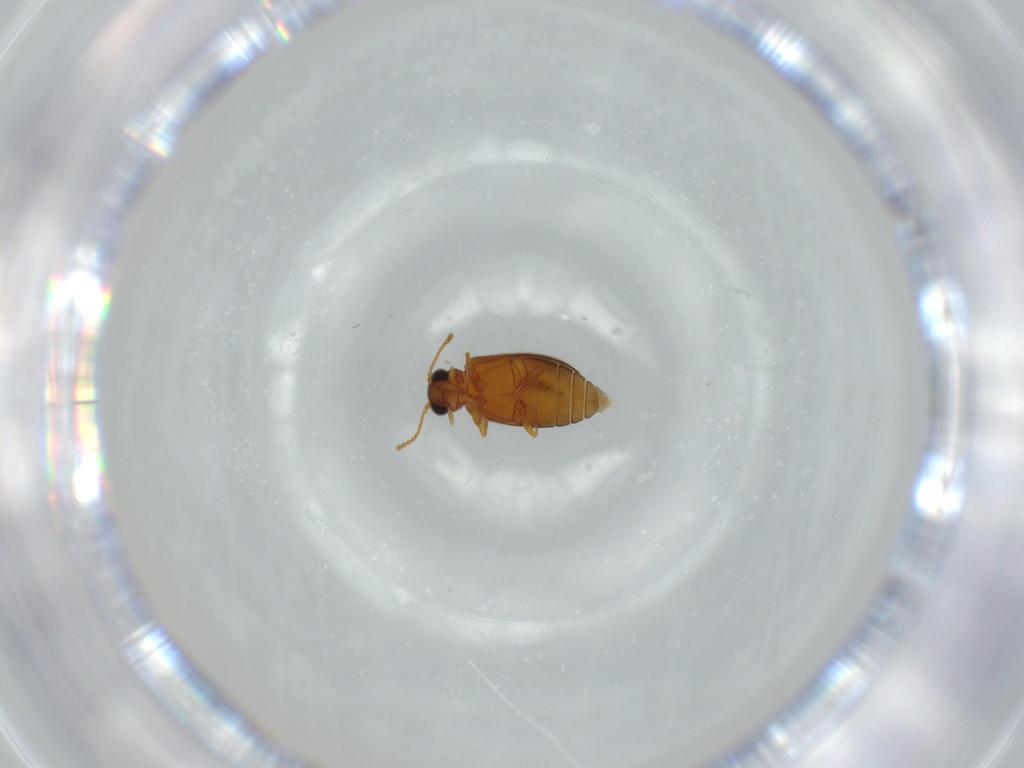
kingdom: Animalia
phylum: Arthropoda
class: Insecta
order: Coleoptera
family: Aderidae
